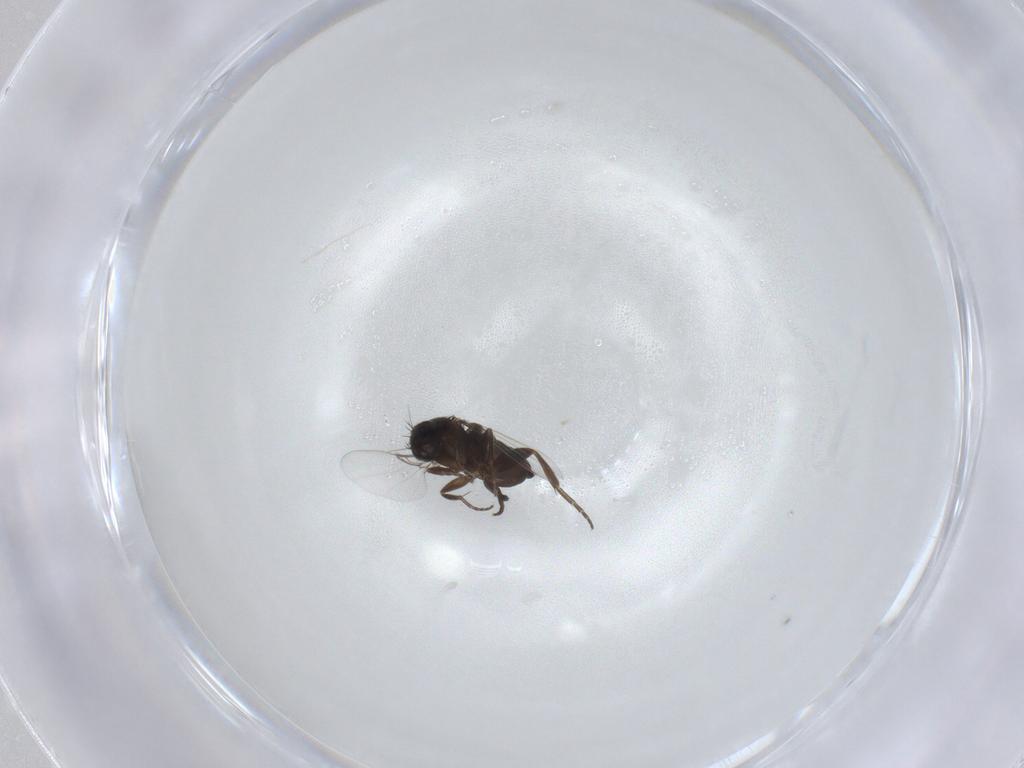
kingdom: Animalia
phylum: Arthropoda
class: Insecta
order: Diptera
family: Phoridae
